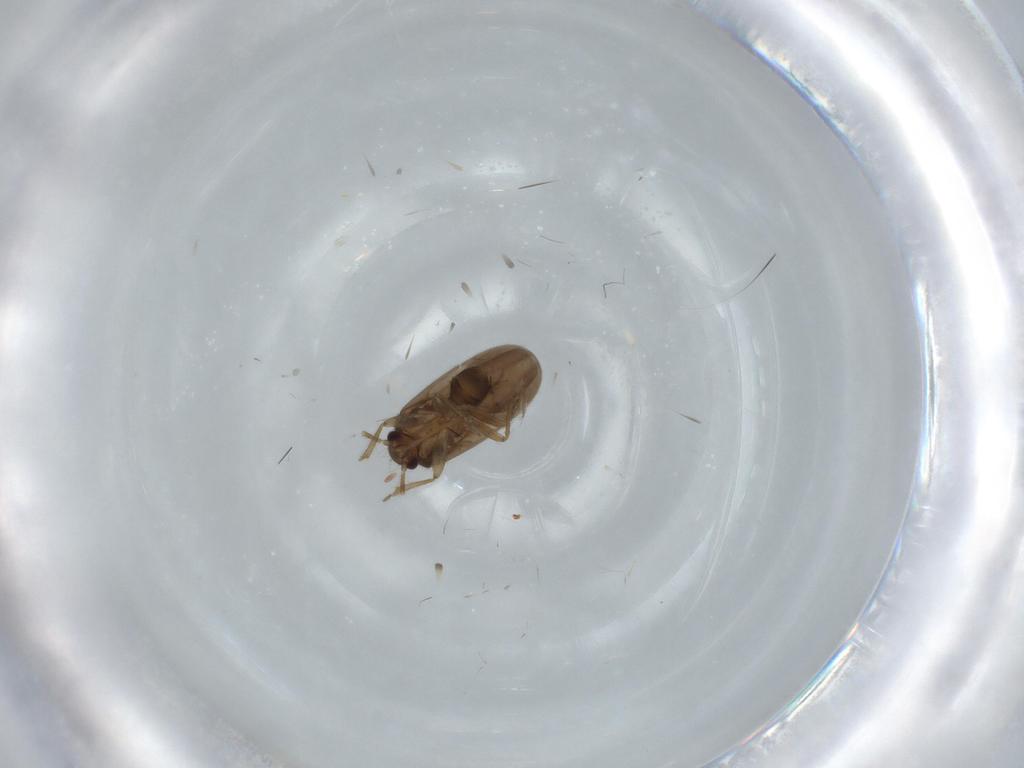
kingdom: Animalia
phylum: Arthropoda
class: Insecta
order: Hemiptera
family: Ceratocombidae
